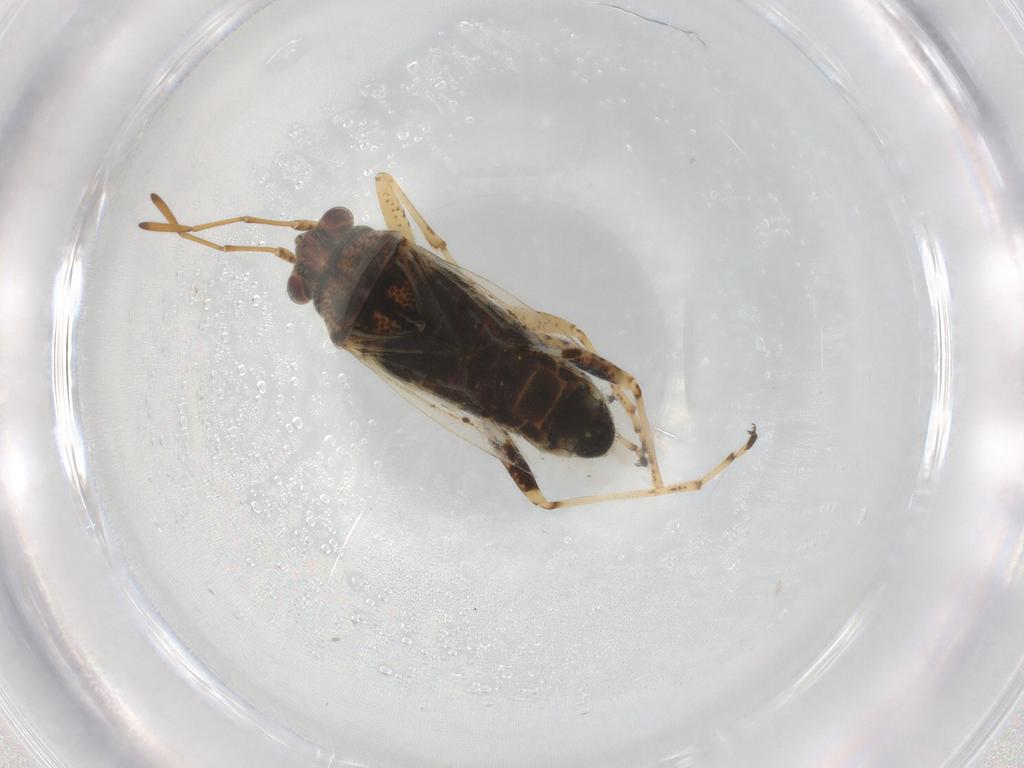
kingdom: Animalia
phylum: Arthropoda
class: Insecta
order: Hemiptera
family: Lygaeidae
